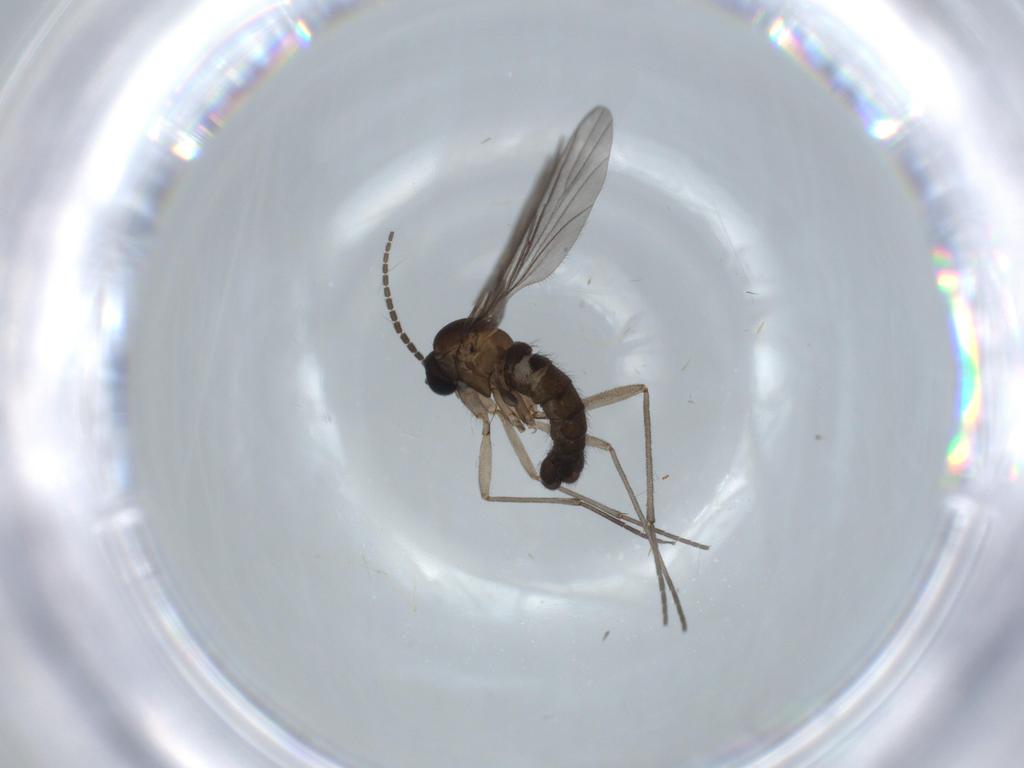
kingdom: Animalia
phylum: Arthropoda
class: Insecta
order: Diptera
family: Sciaridae
